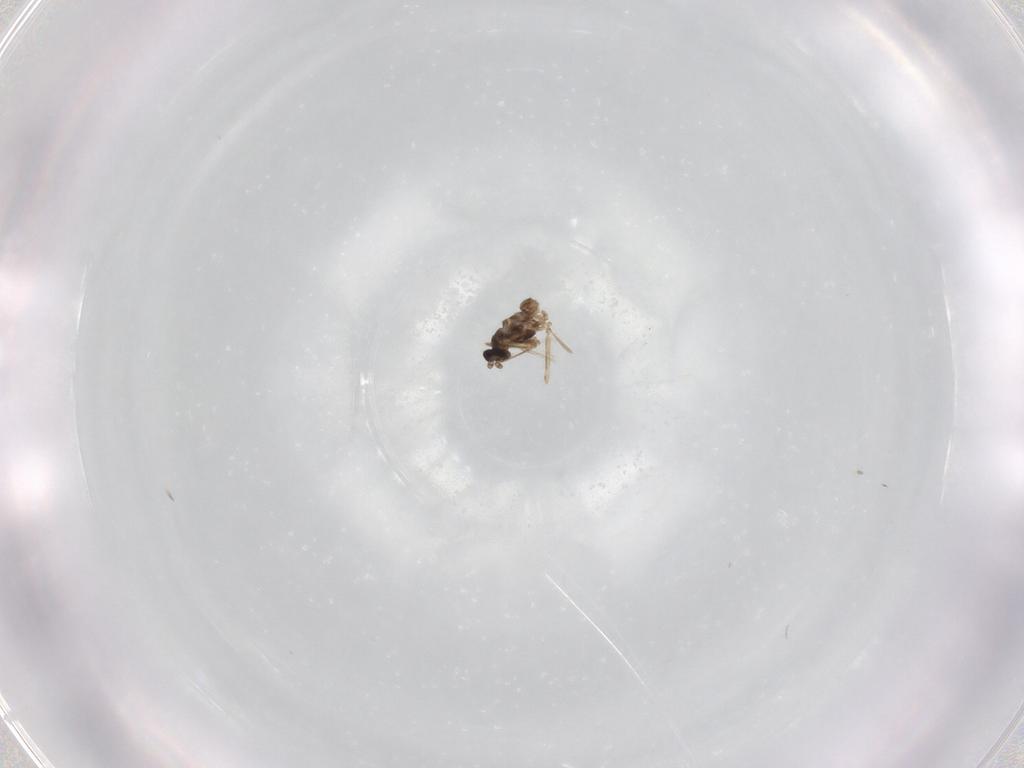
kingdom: Animalia
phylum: Arthropoda
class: Insecta
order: Diptera
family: Cecidomyiidae
